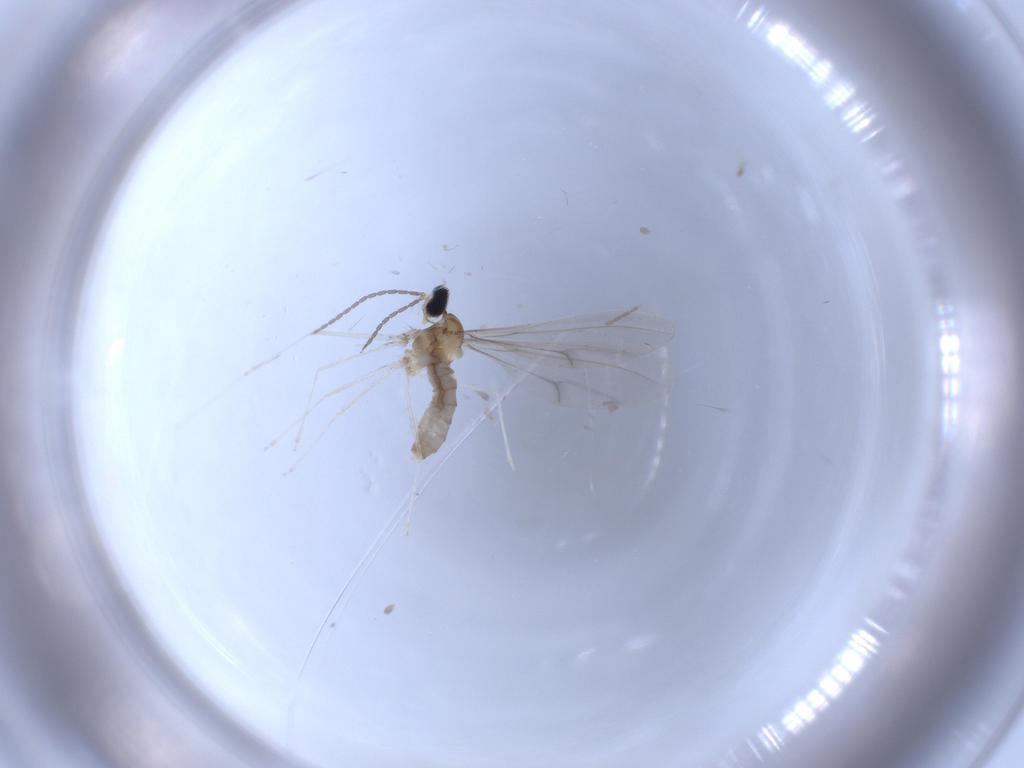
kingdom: Animalia
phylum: Arthropoda
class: Insecta
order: Diptera
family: Cecidomyiidae
